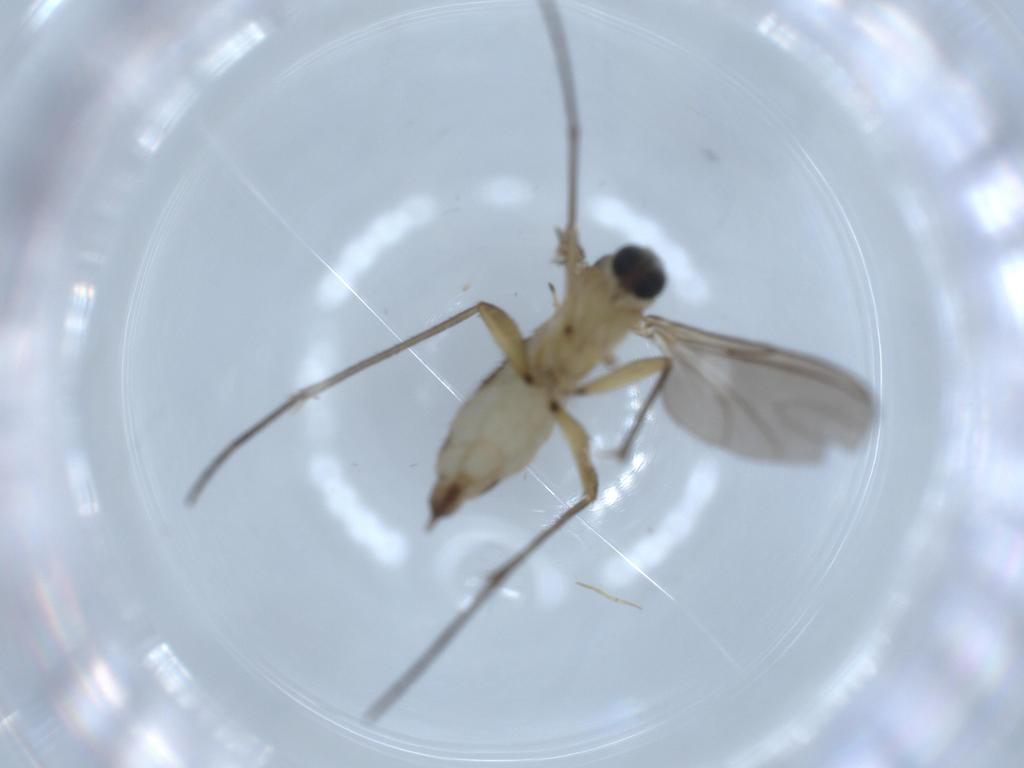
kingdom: Animalia
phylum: Arthropoda
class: Insecta
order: Diptera
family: Sciaridae
